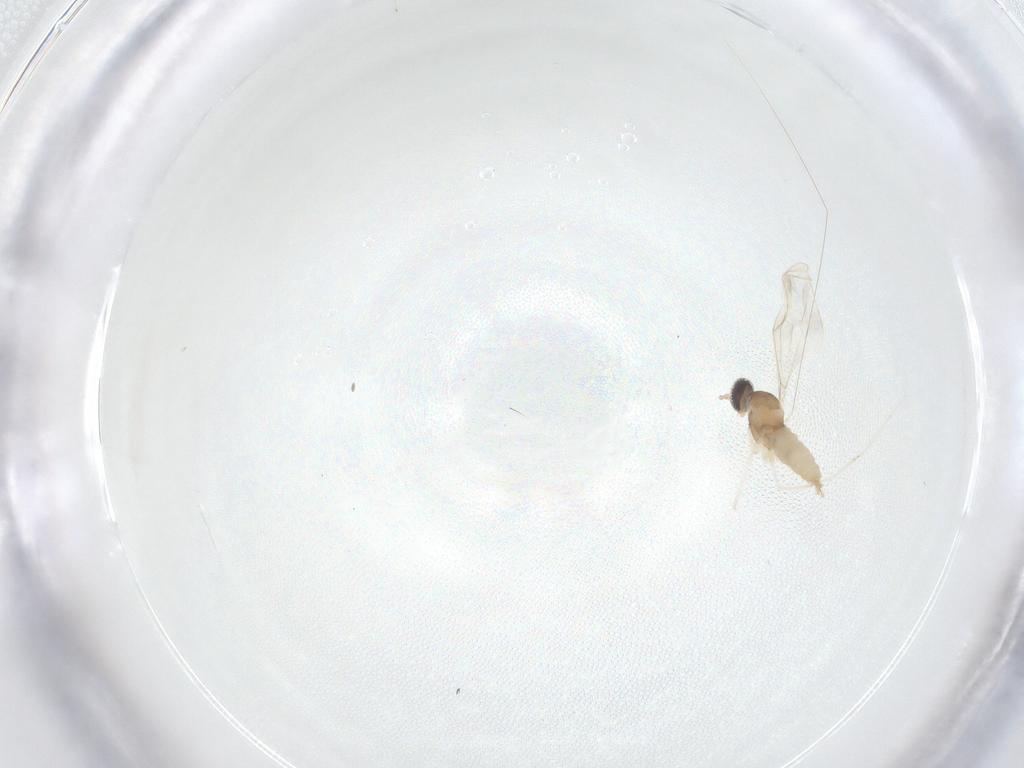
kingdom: Animalia
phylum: Arthropoda
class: Insecta
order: Diptera
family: Cecidomyiidae
